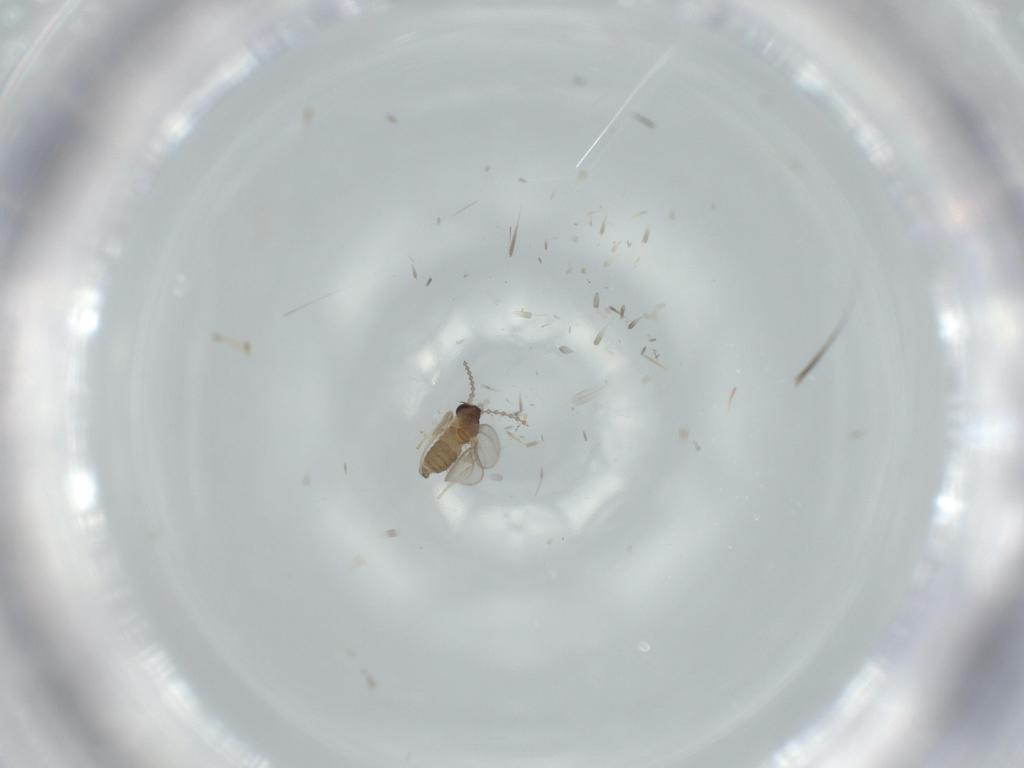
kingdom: Animalia
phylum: Arthropoda
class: Insecta
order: Diptera
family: Cecidomyiidae
